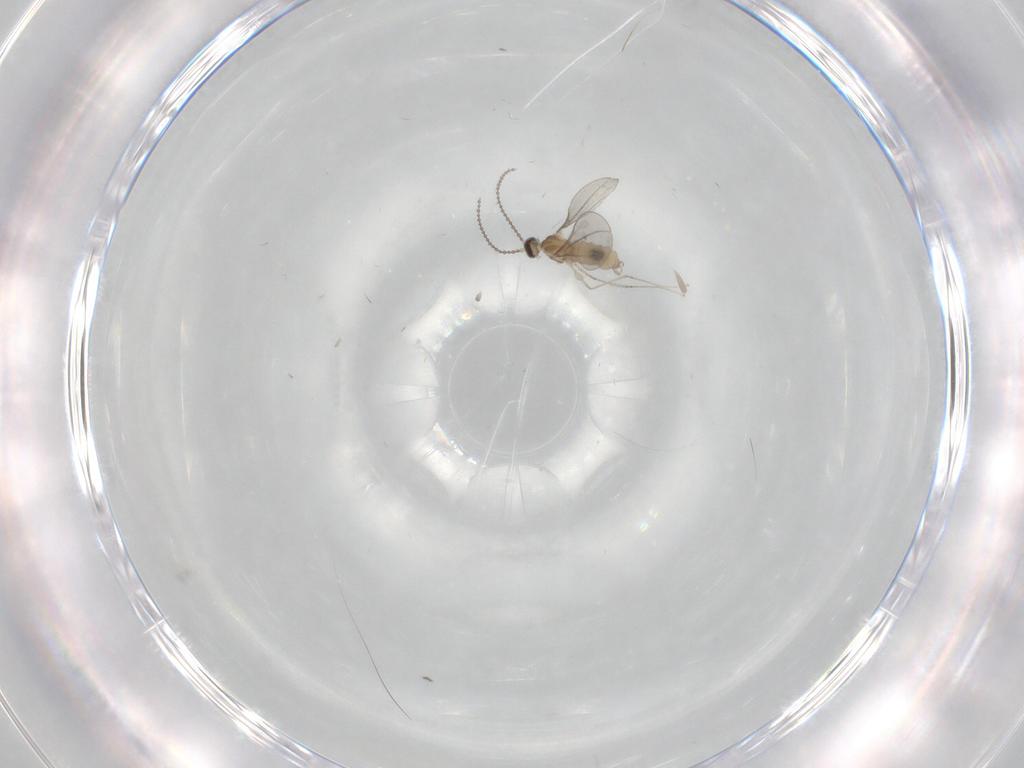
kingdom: Animalia
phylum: Arthropoda
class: Insecta
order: Diptera
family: Cecidomyiidae
